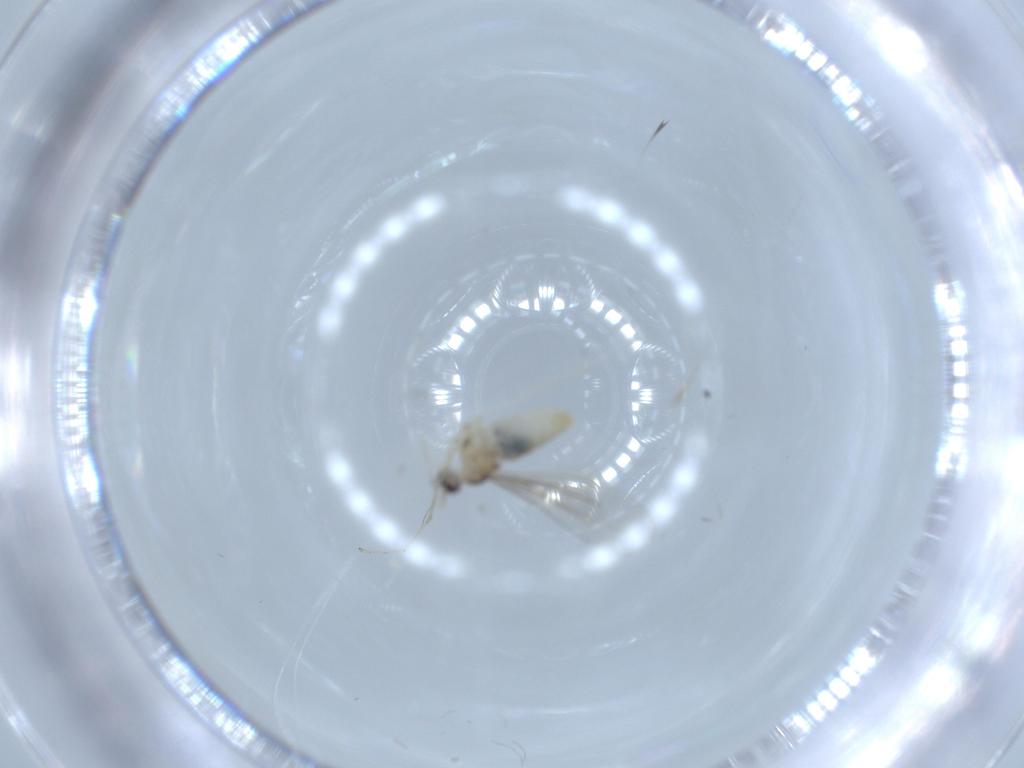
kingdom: Animalia
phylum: Arthropoda
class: Insecta
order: Diptera
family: Cecidomyiidae
